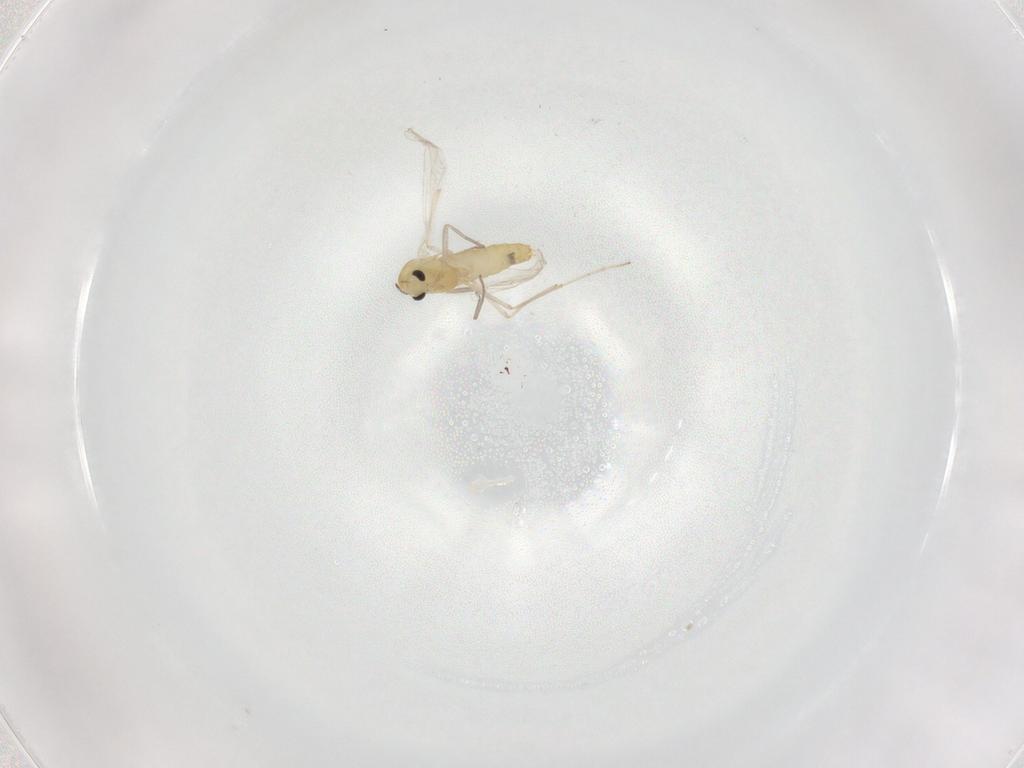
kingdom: Animalia
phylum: Arthropoda
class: Insecta
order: Diptera
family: Chironomidae
